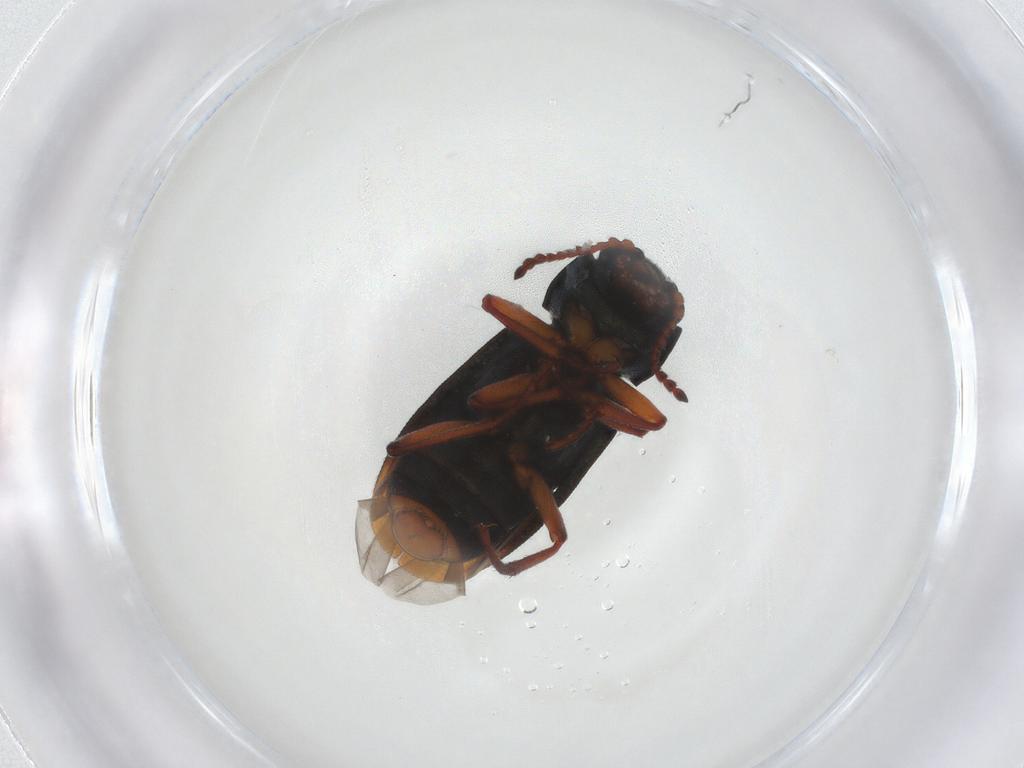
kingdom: Animalia
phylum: Arthropoda
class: Insecta
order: Coleoptera
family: Melyridae
